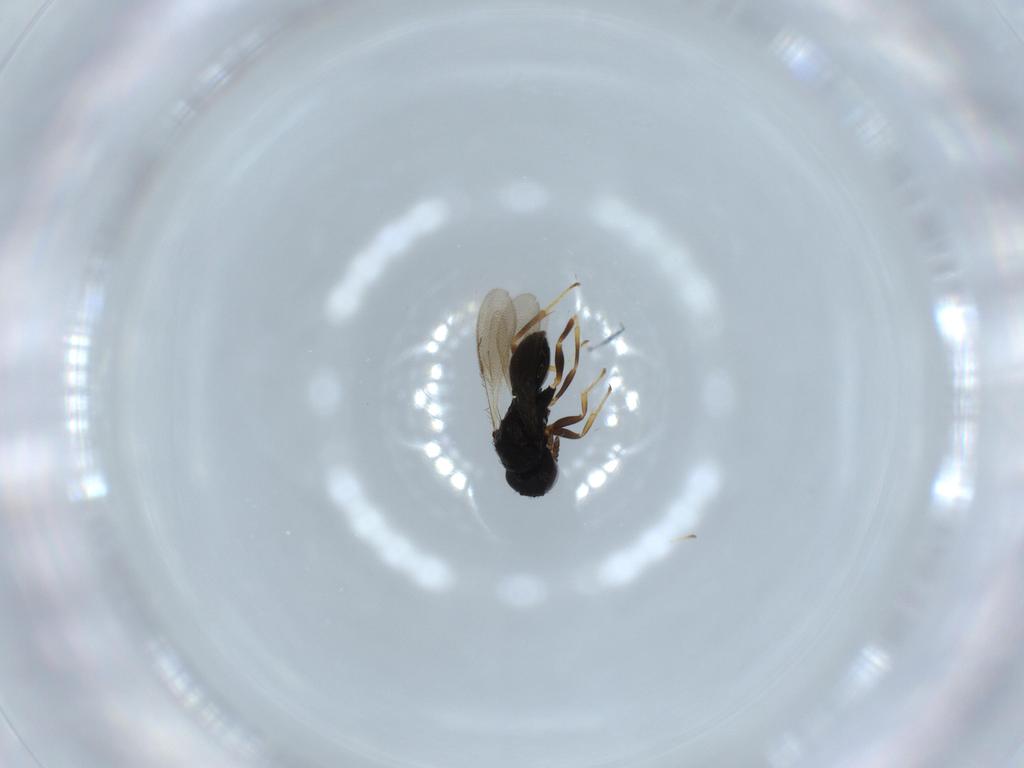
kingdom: Animalia
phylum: Arthropoda
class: Insecta
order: Hymenoptera
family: Pteromalidae
